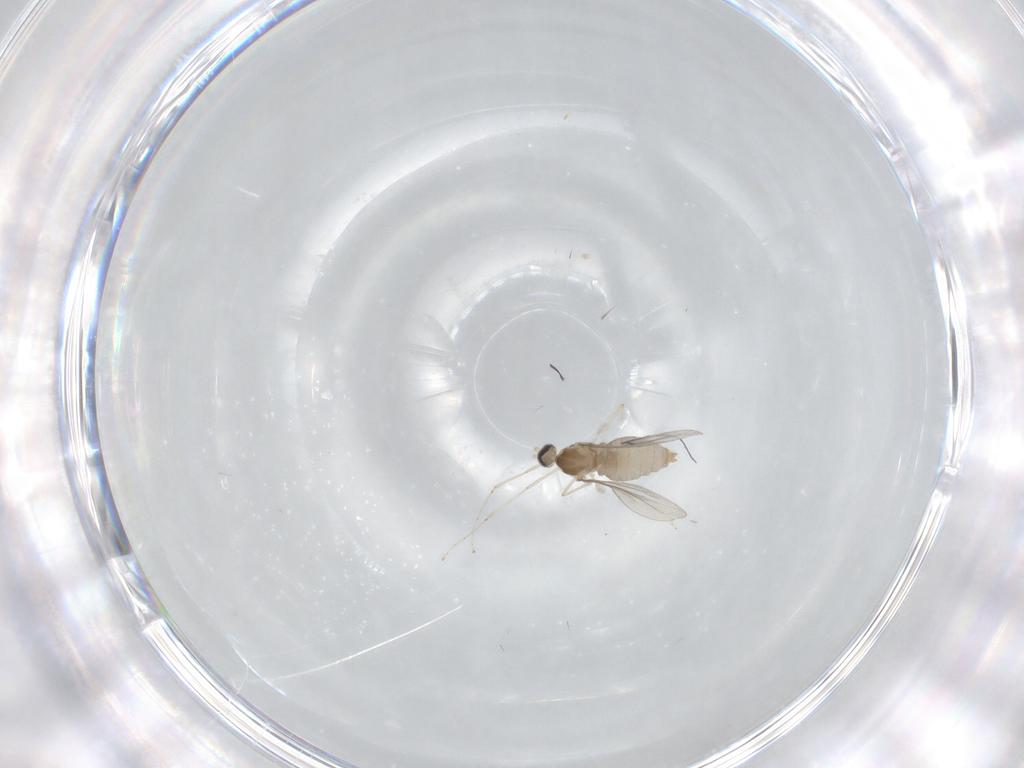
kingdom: Animalia
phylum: Arthropoda
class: Insecta
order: Diptera
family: Cecidomyiidae
